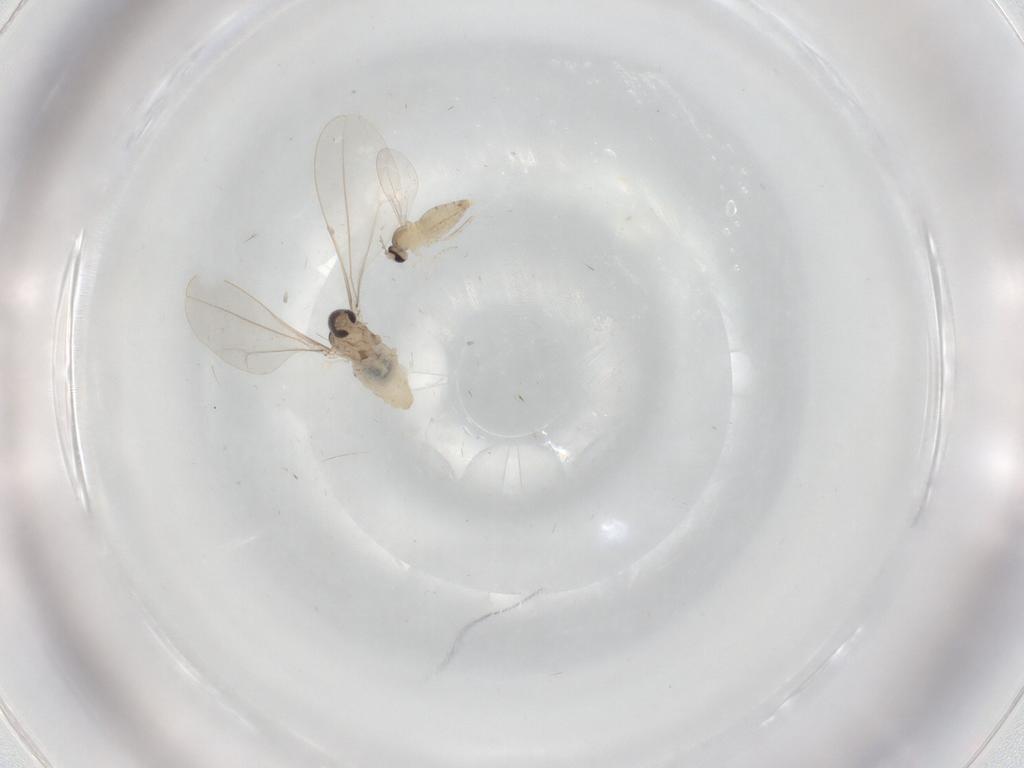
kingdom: Animalia
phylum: Arthropoda
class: Insecta
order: Diptera
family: Cecidomyiidae
